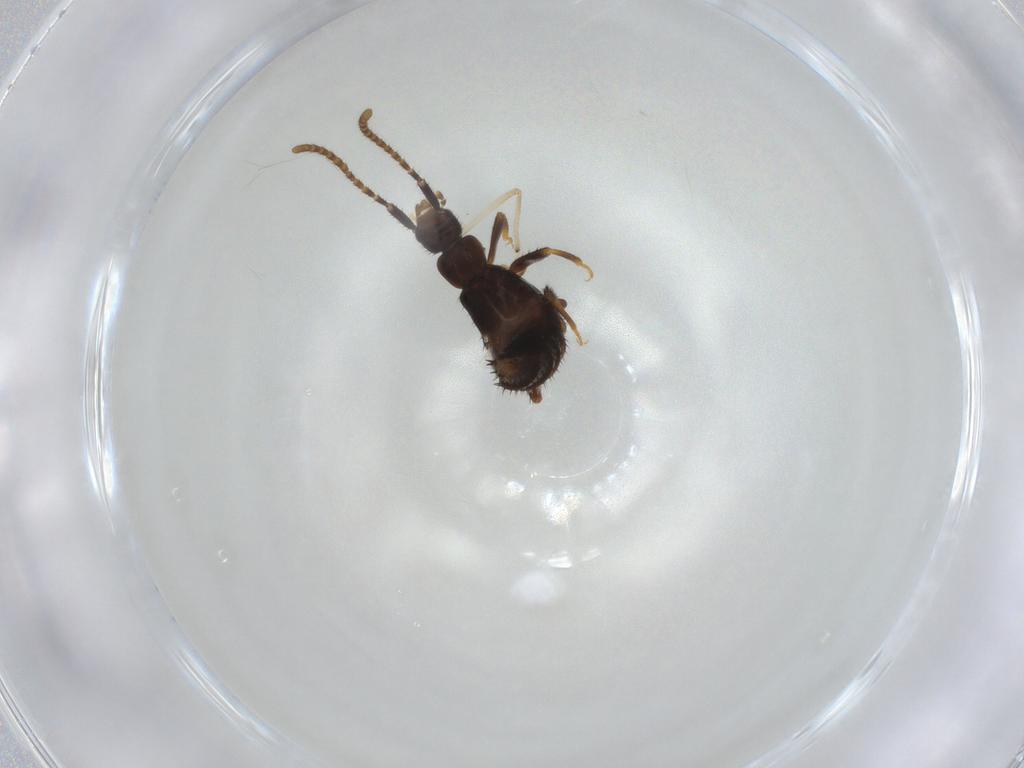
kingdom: Animalia
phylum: Arthropoda
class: Insecta
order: Coleoptera
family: Staphylinidae
